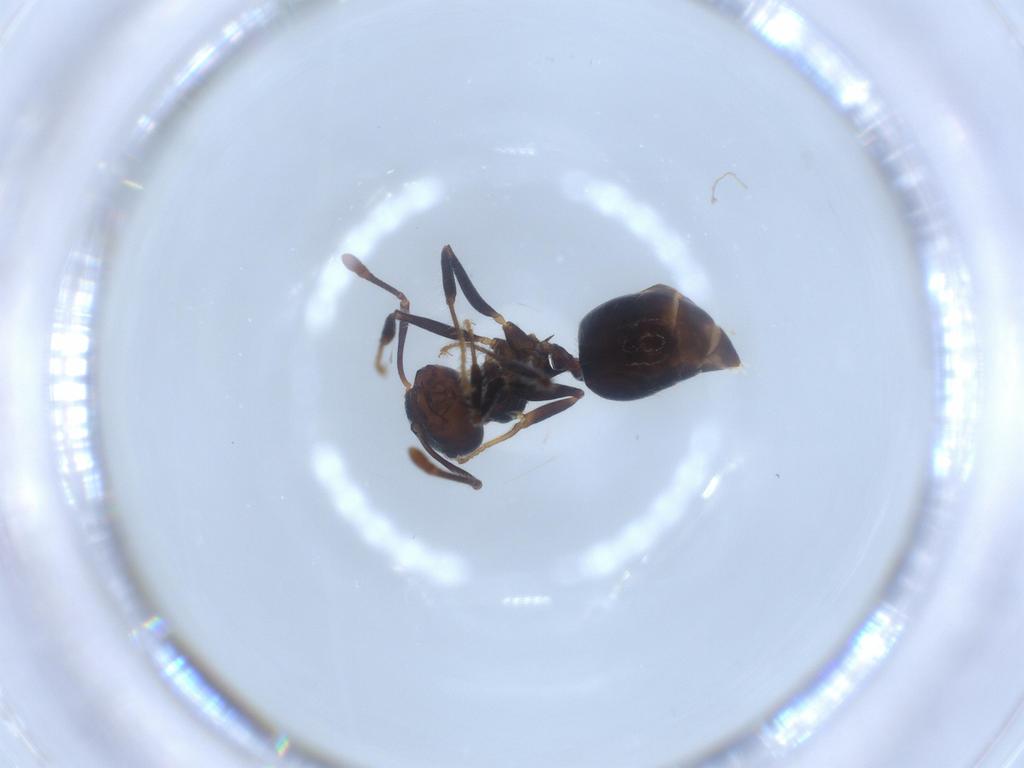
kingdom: Animalia
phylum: Arthropoda
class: Insecta
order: Hymenoptera
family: Formicidae
